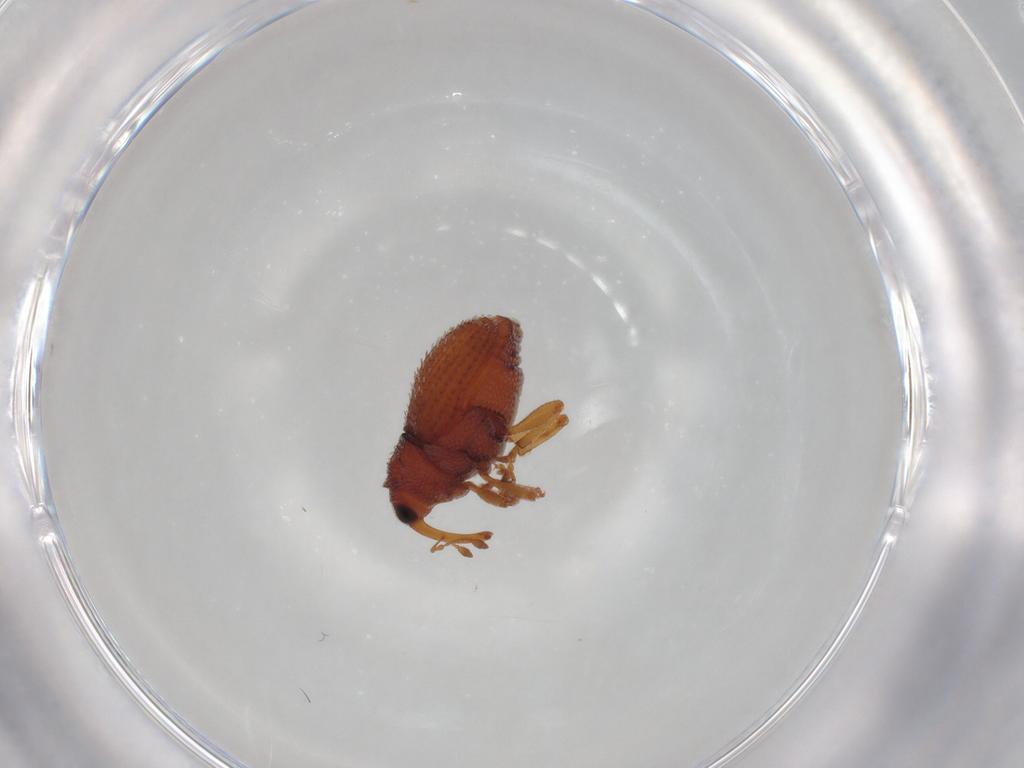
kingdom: Animalia
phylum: Arthropoda
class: Insecta
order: Coleoptera
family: Curculionidae
